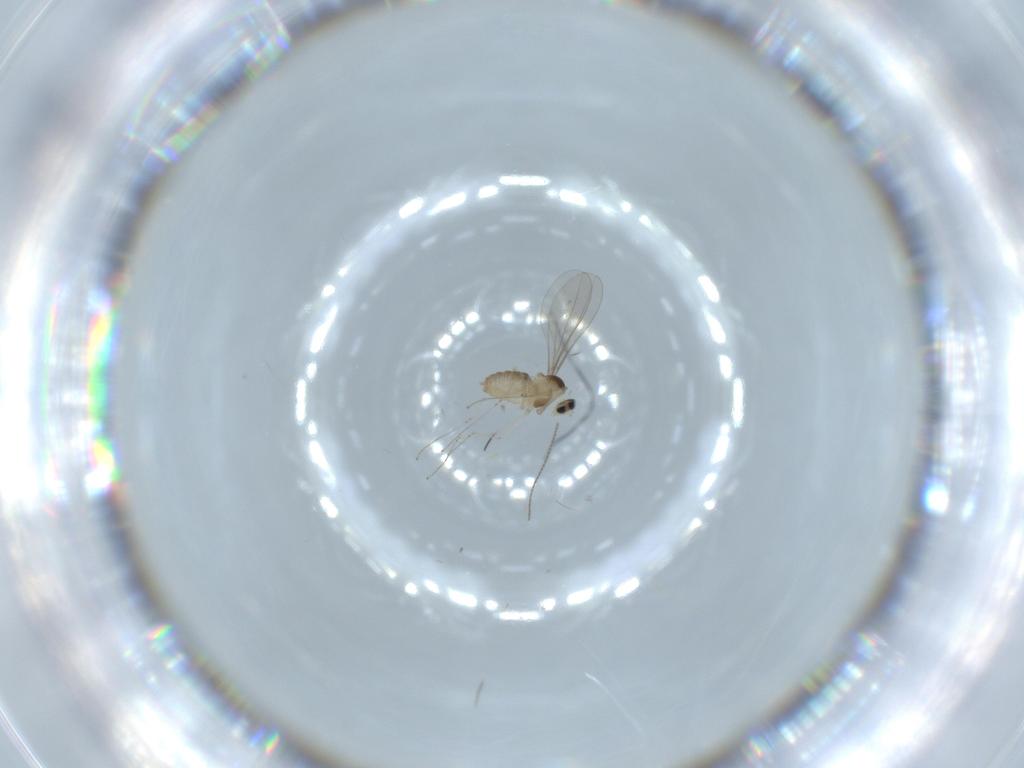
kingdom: Animalia
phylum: Arthropoda
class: Insecta
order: Diptera
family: Cecidomyiidae
